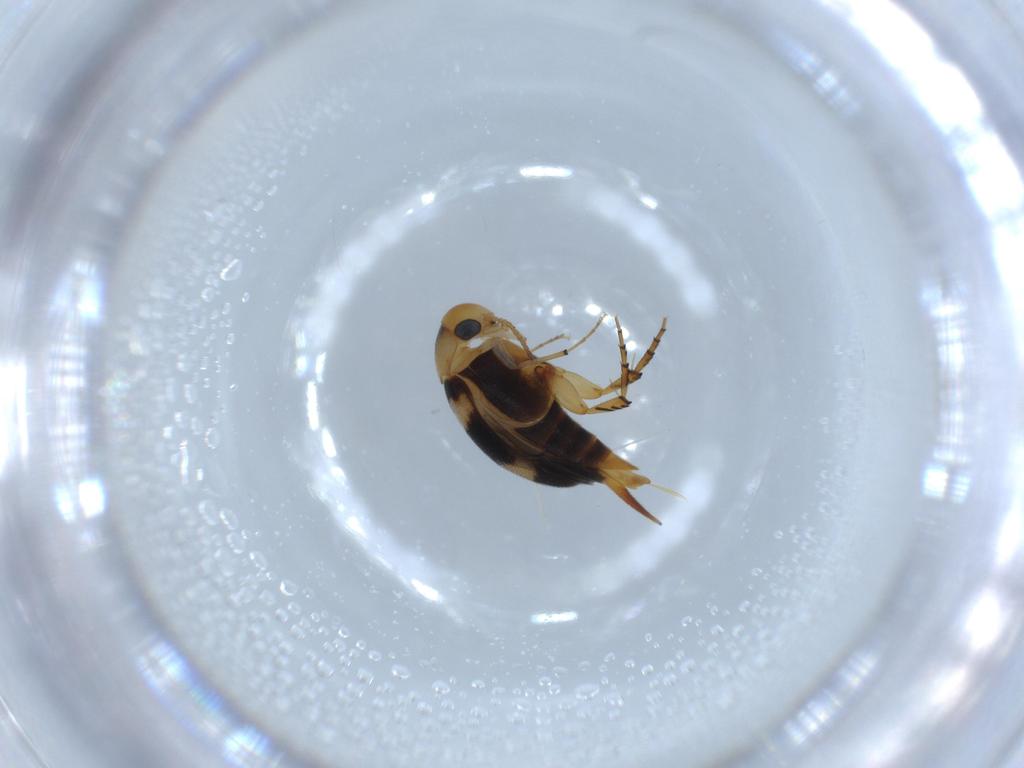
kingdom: Animalia
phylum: Arthropoda
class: Insecta
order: Coleoptera
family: Mordellidae
